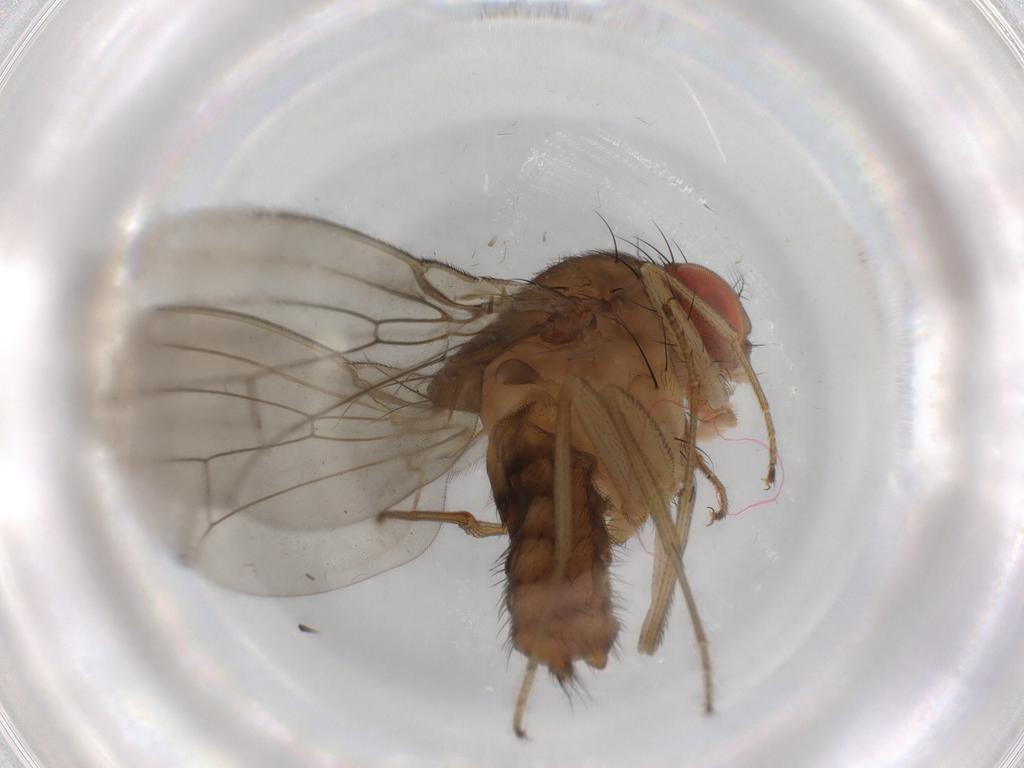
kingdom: Animalia
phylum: Arthropoda
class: Insecta
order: Diptera
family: Drosophilidae
